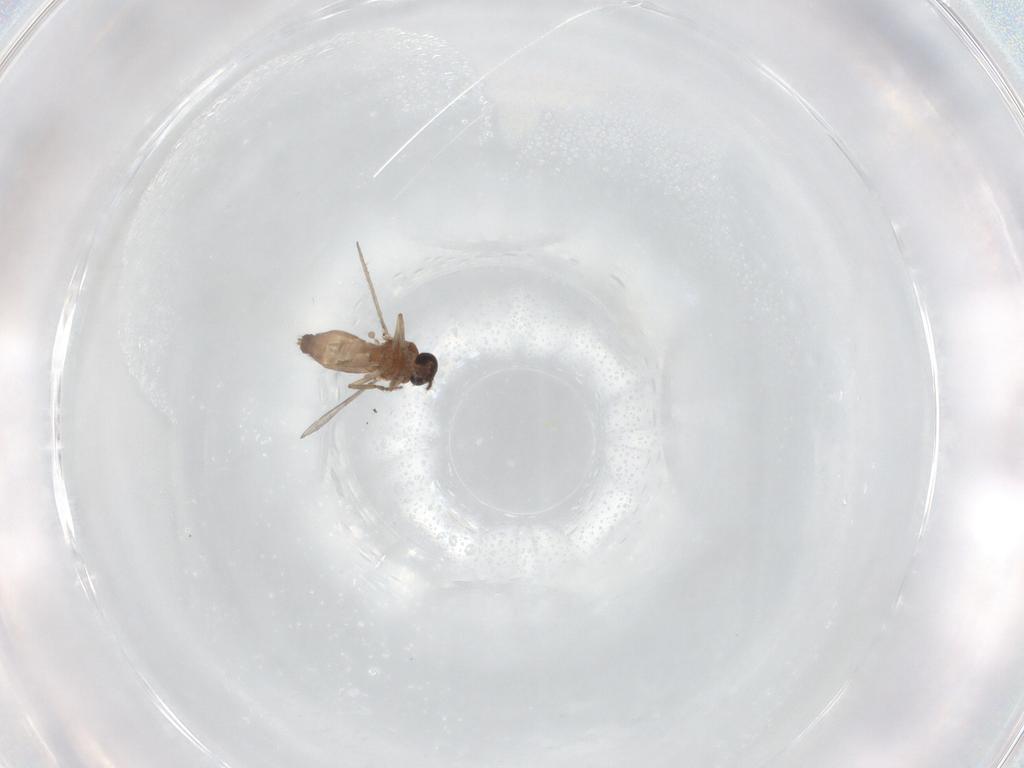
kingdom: Animalia
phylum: Arthropoda
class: Insecta
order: Diptera
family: Ceratopogonidae
